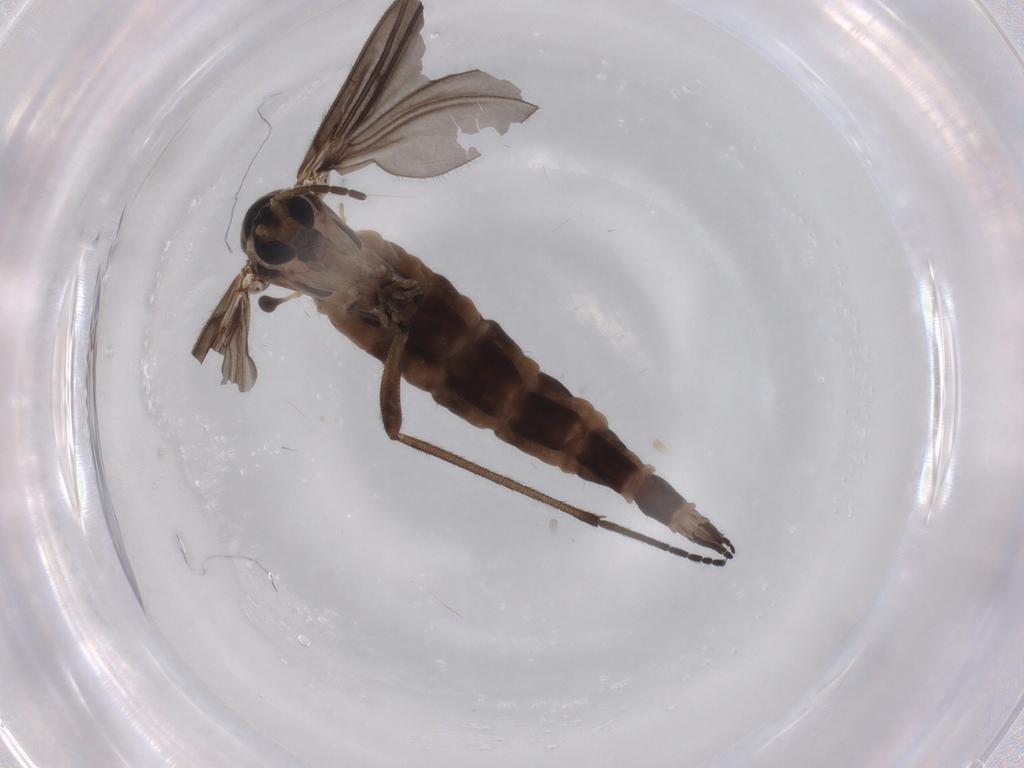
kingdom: Animalia
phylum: Arthropoda
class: Insecta
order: Diptera
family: Sciaridae
